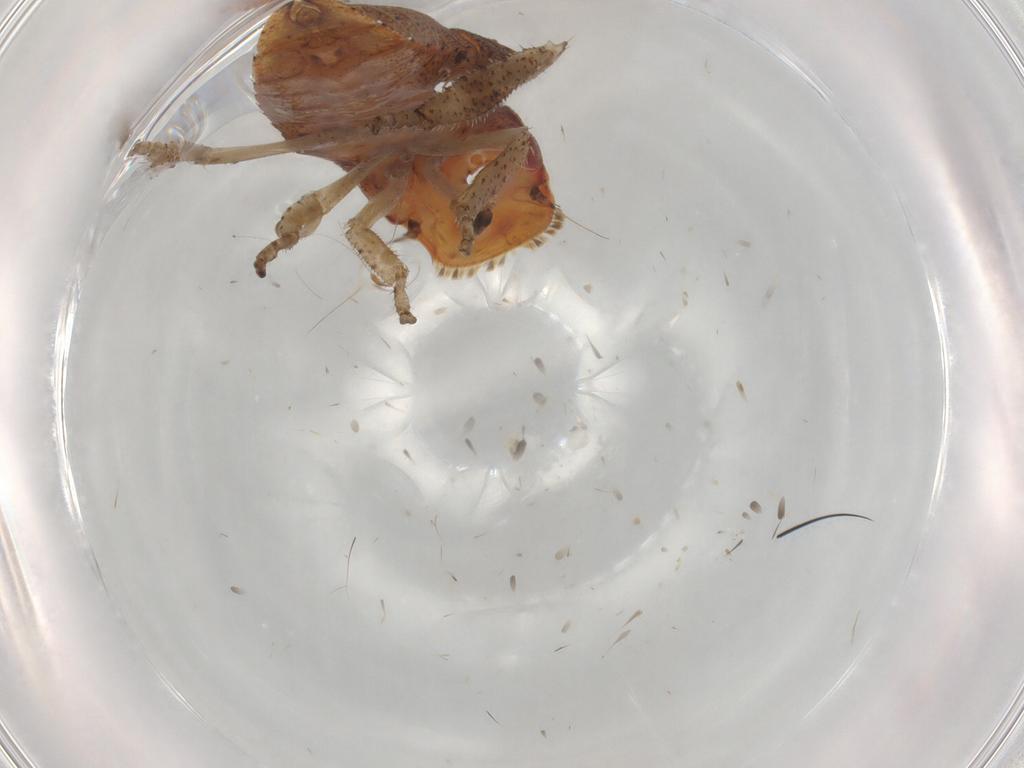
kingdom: Animalia
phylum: Arthropoda
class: Insecta
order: Hemiptera
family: Cicadellidae
